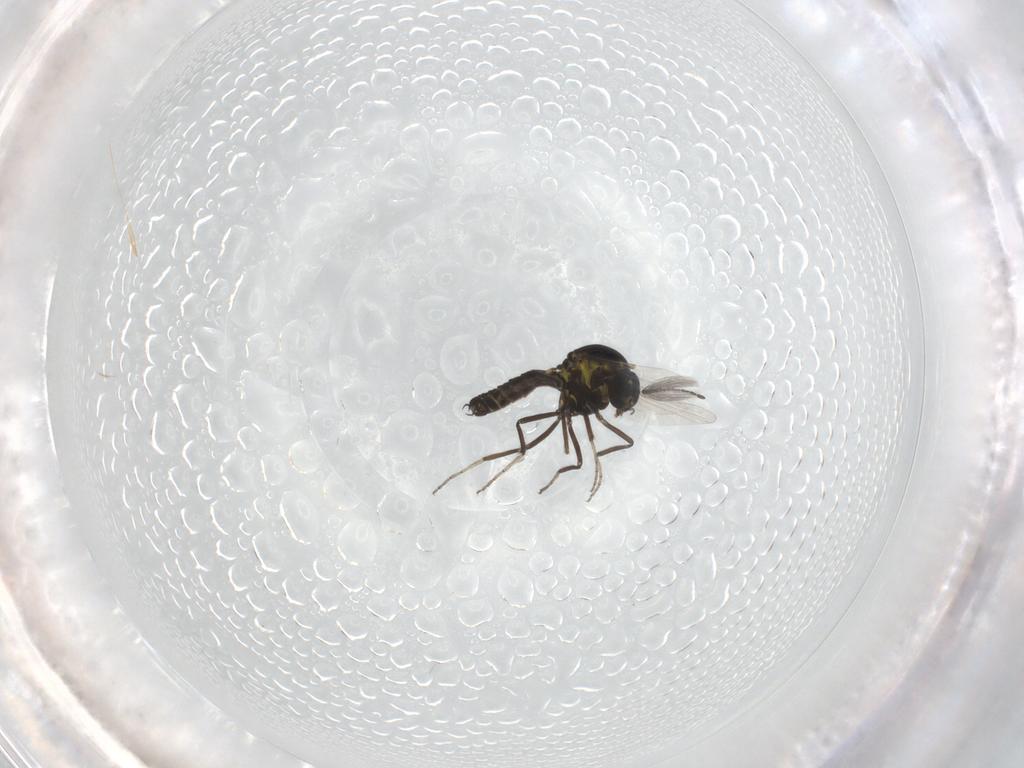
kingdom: Animalia
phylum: Arthropoda
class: Insecta
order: Diptera
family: Ceratopogonidae
